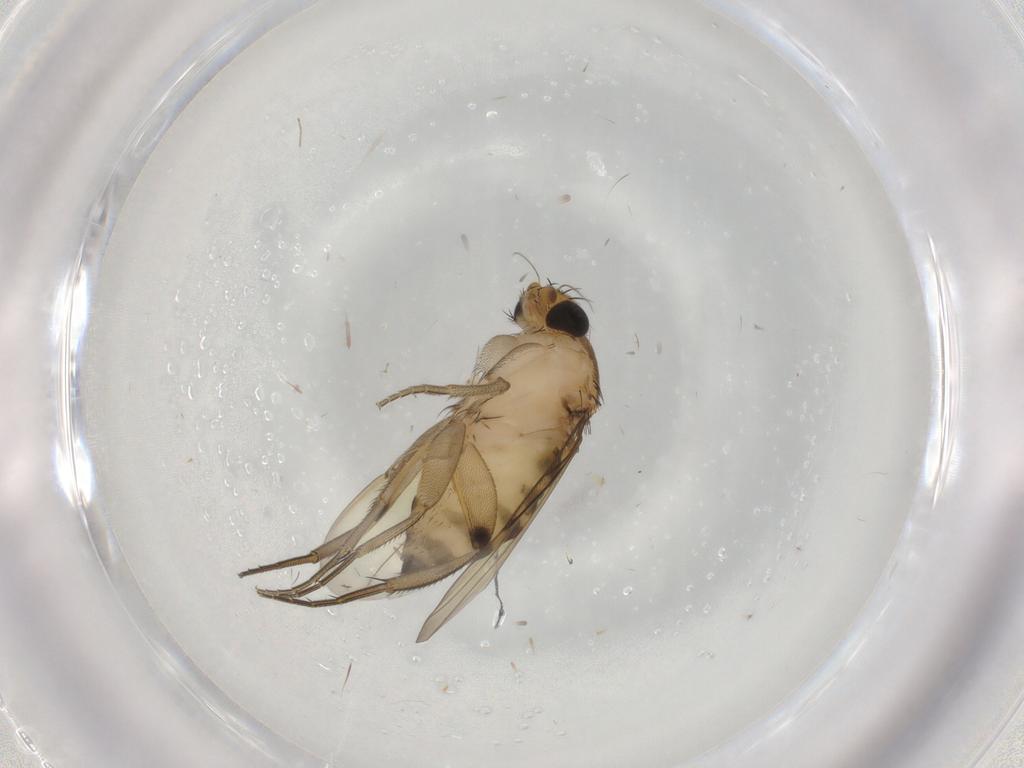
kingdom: Animalia
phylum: Arthropoda
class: Insecta
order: Diptera
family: Phoridae
